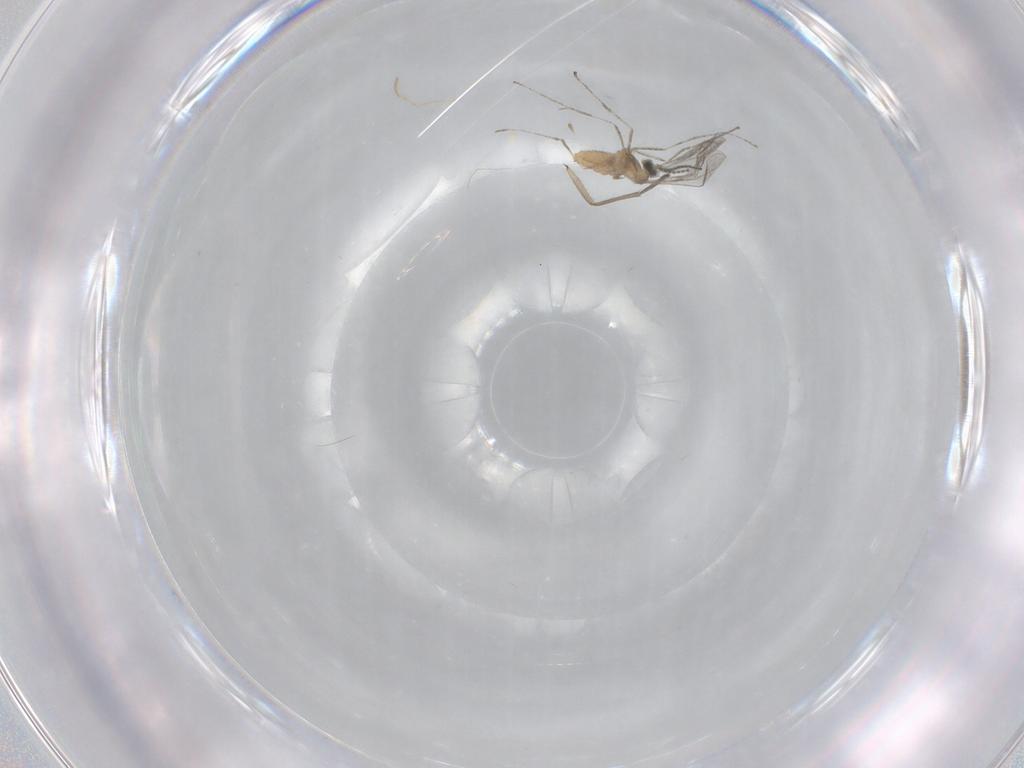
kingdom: Animalia
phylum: Arthropoda
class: Insecta
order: Diptera
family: Cecidomyiidae
